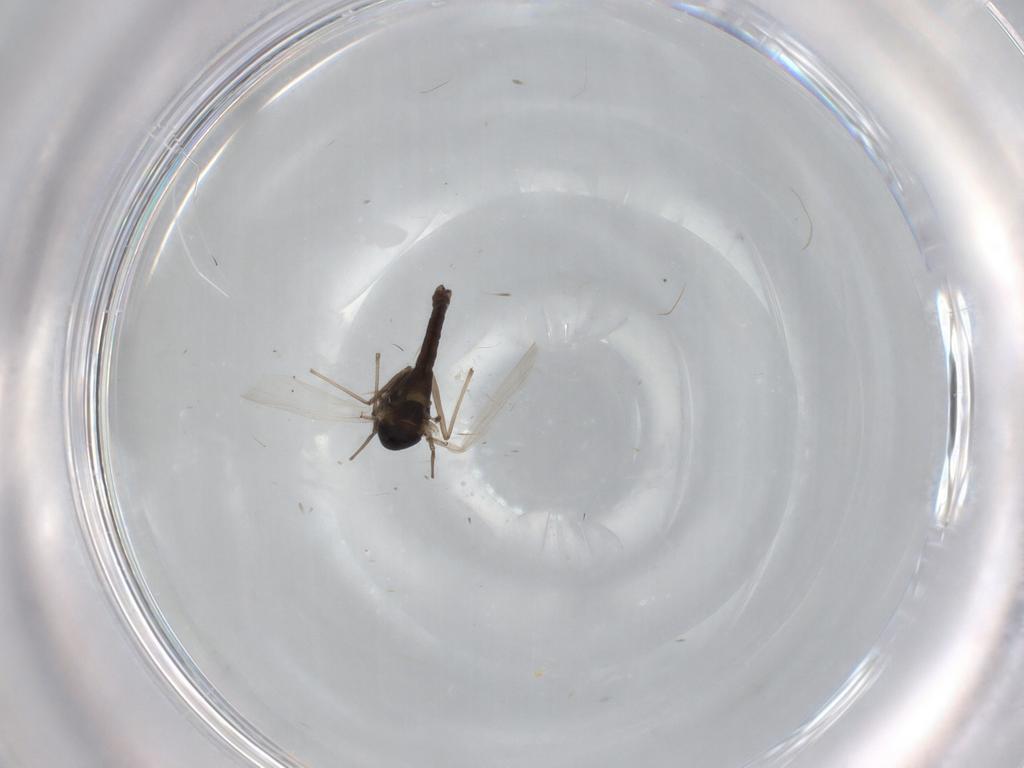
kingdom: Animalia
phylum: Arthropoda
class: Insecta
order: Diptera
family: Chironomidae
